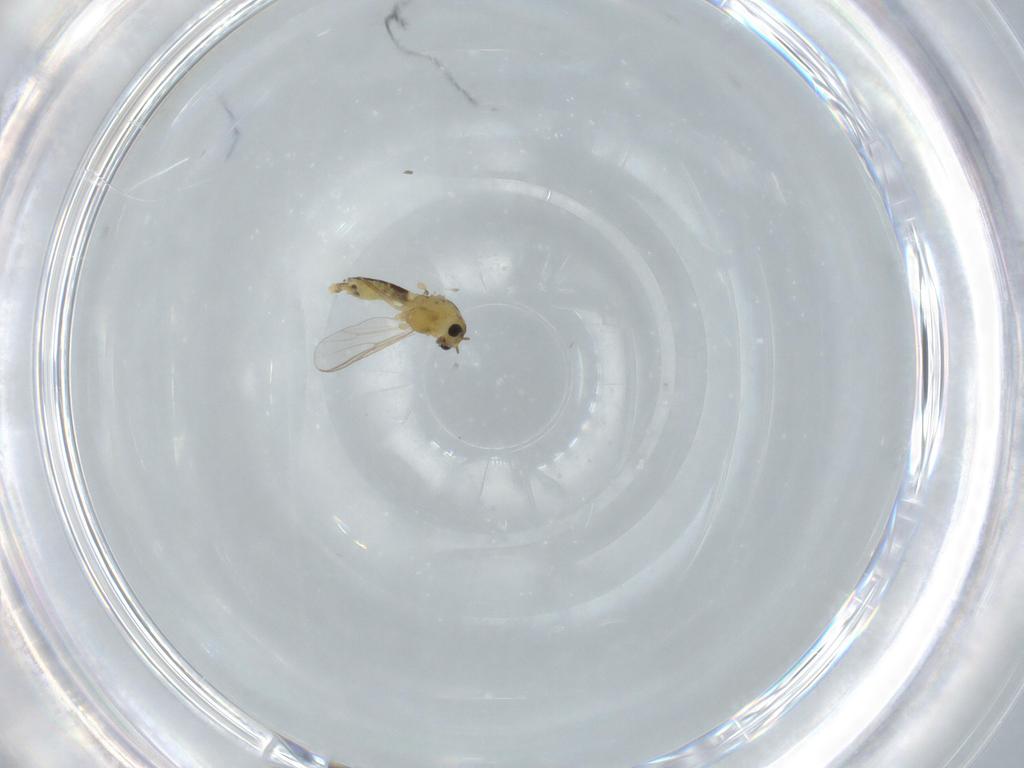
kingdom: Animalia
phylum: Arthropoda
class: Insecta
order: Diptera
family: Chironomidae
